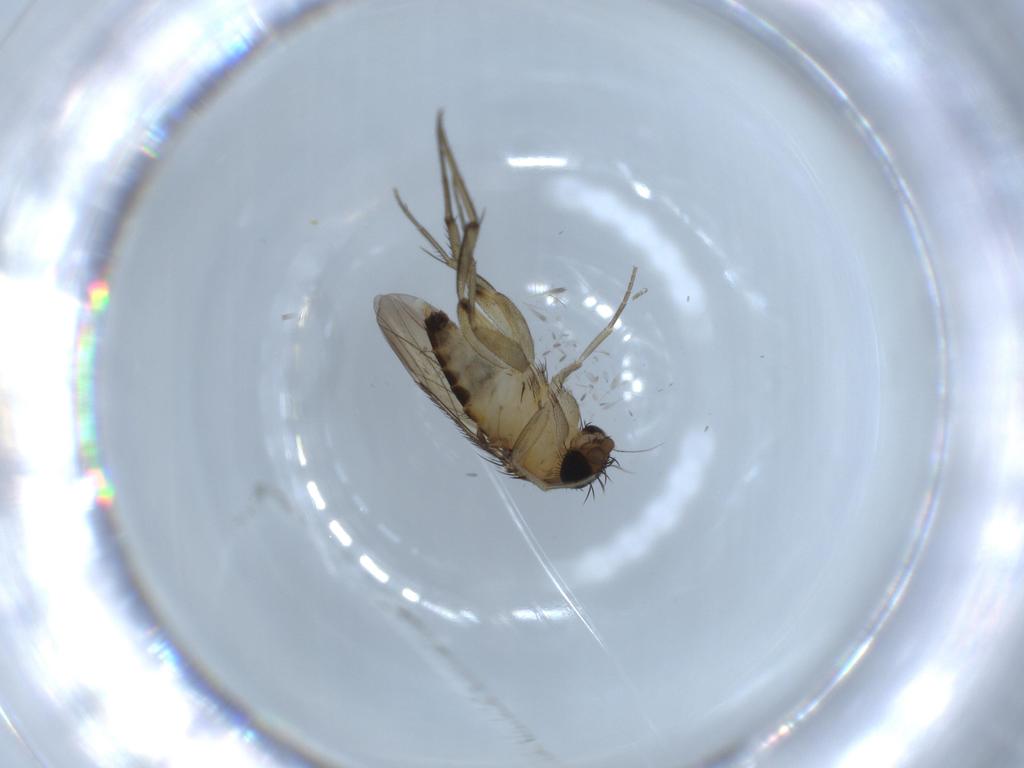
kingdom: Animalia
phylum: Arthropoda
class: Insecta
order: Diptera
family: Phoridae
